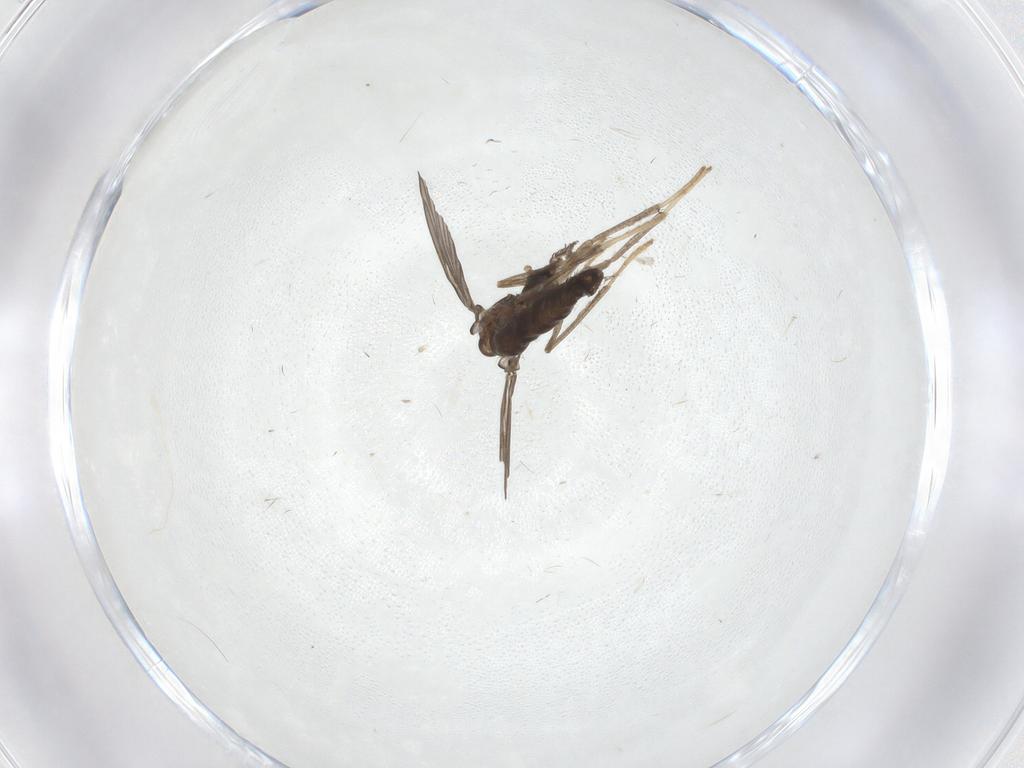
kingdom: Animalia
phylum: Arthropoda
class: Insecta
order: Diptera
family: Psychodidae
